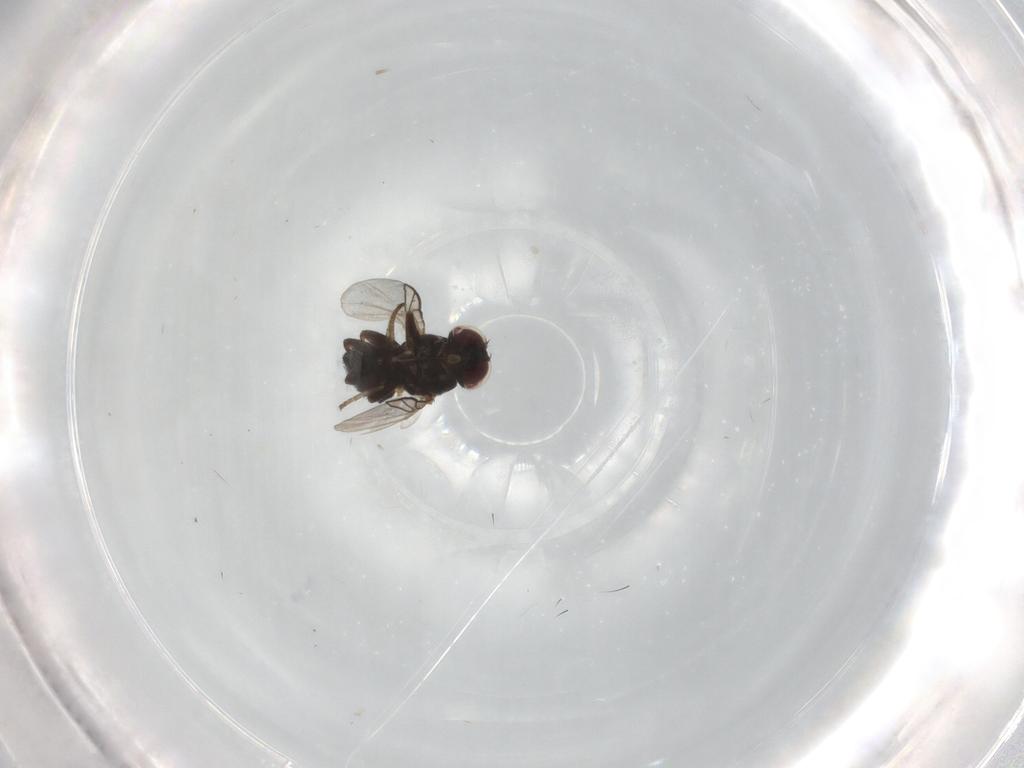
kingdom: Animalia
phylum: Arthropoda
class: Insecta
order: Diptera
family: Agromyzidae
